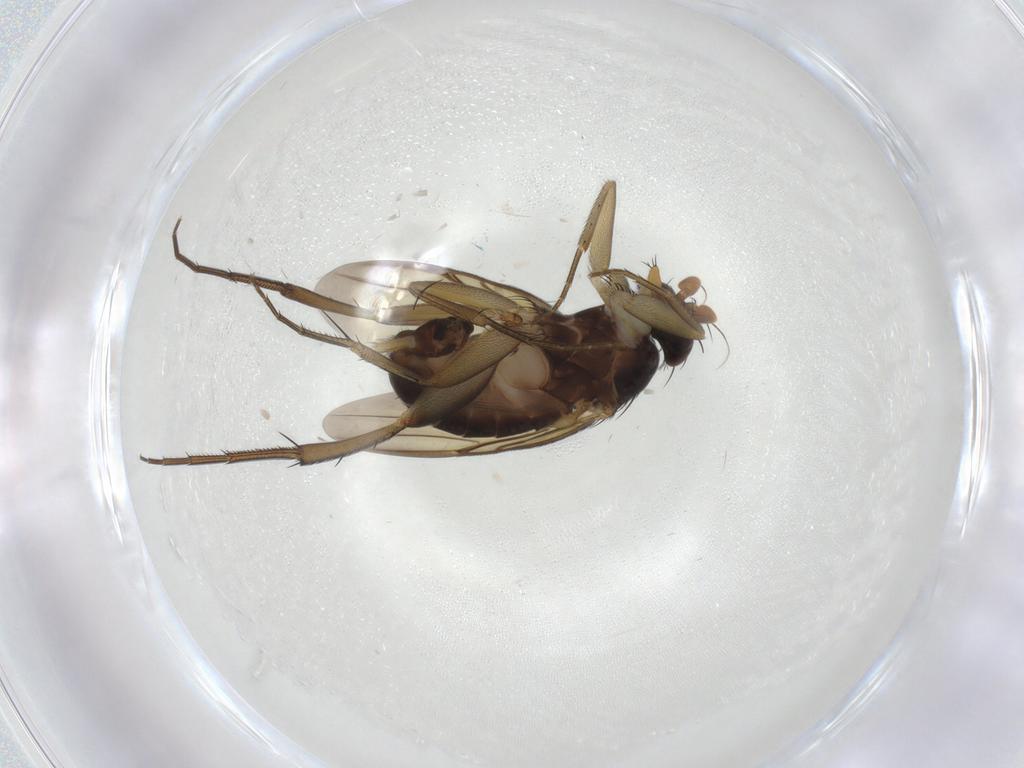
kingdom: Animalia
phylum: Arthropoda
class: Insecta
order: Diptera
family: Phoridae
